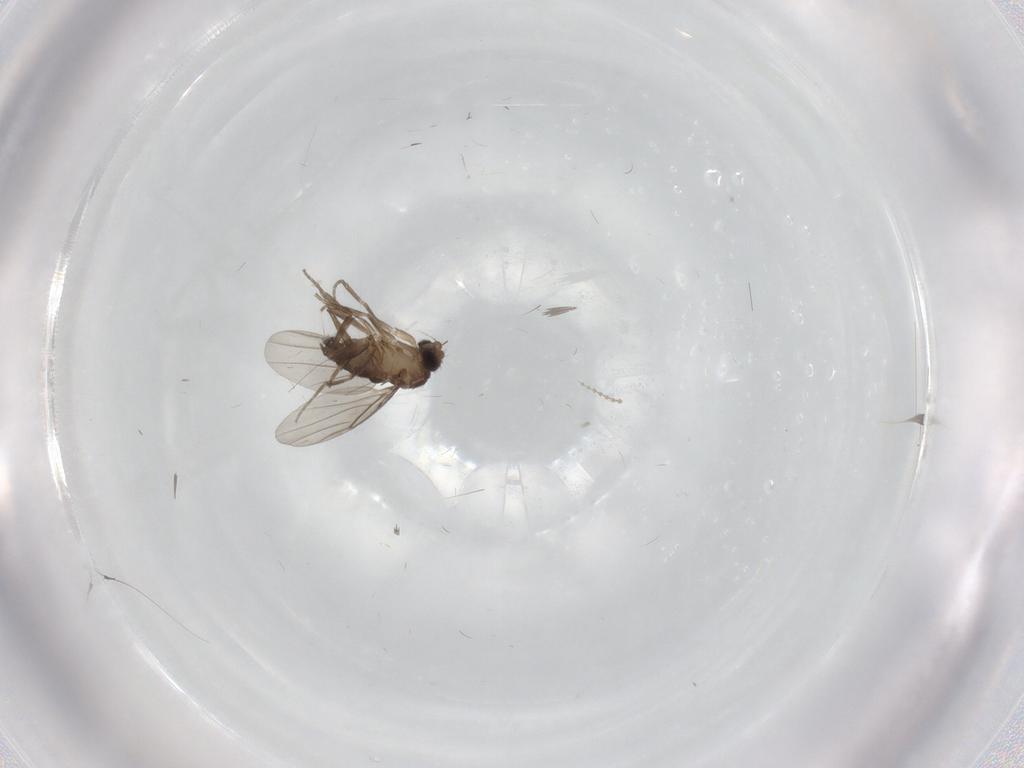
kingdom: Animalia
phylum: Arthropoda
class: Insecta
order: Diptera
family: Phoridae
